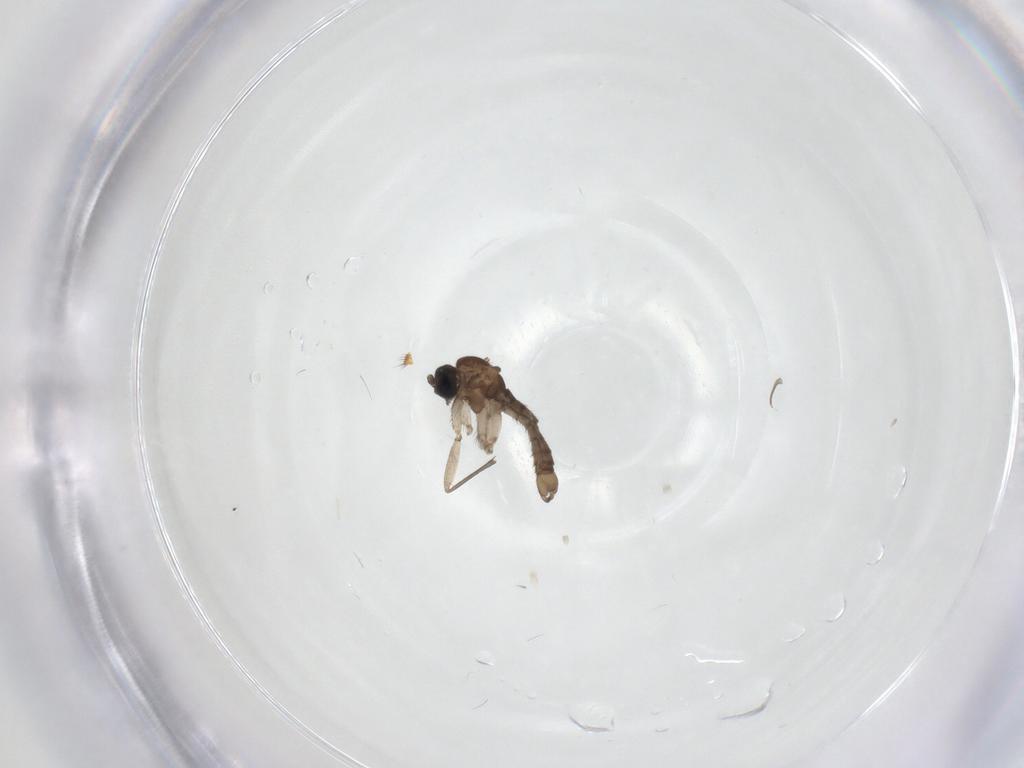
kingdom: Animalia
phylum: Arthropoda
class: Insecta
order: Diptera
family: Sciaridae
